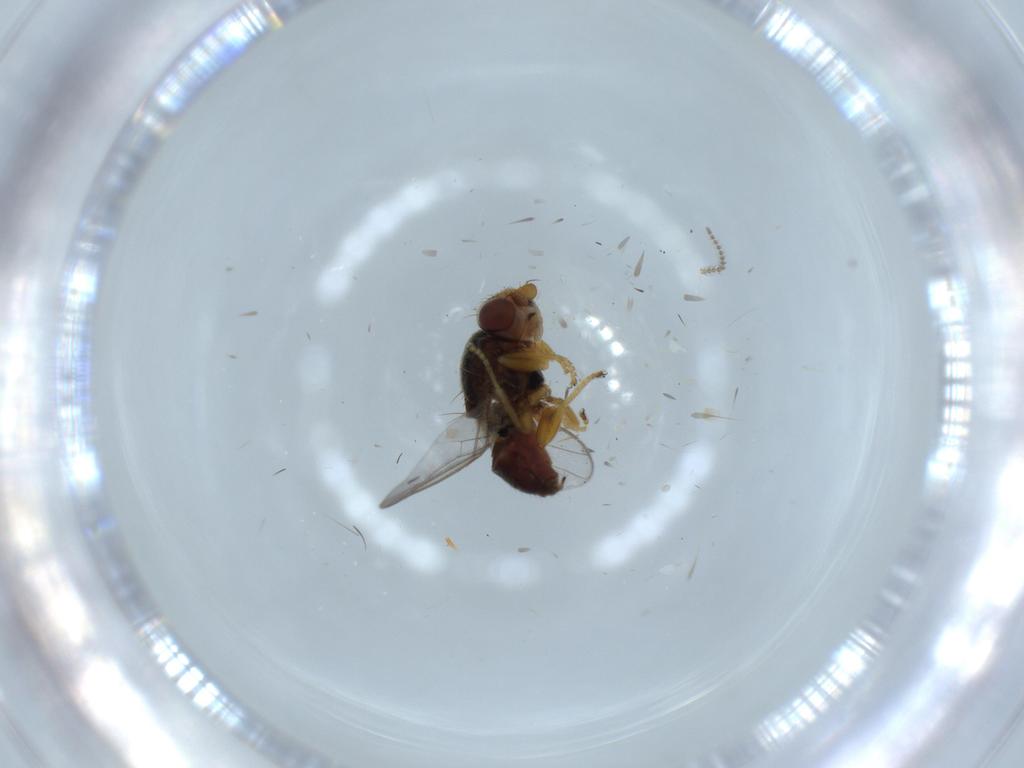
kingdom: Animalia
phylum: Arthropoda
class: Insecta
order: Diptera
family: Chloropidae
